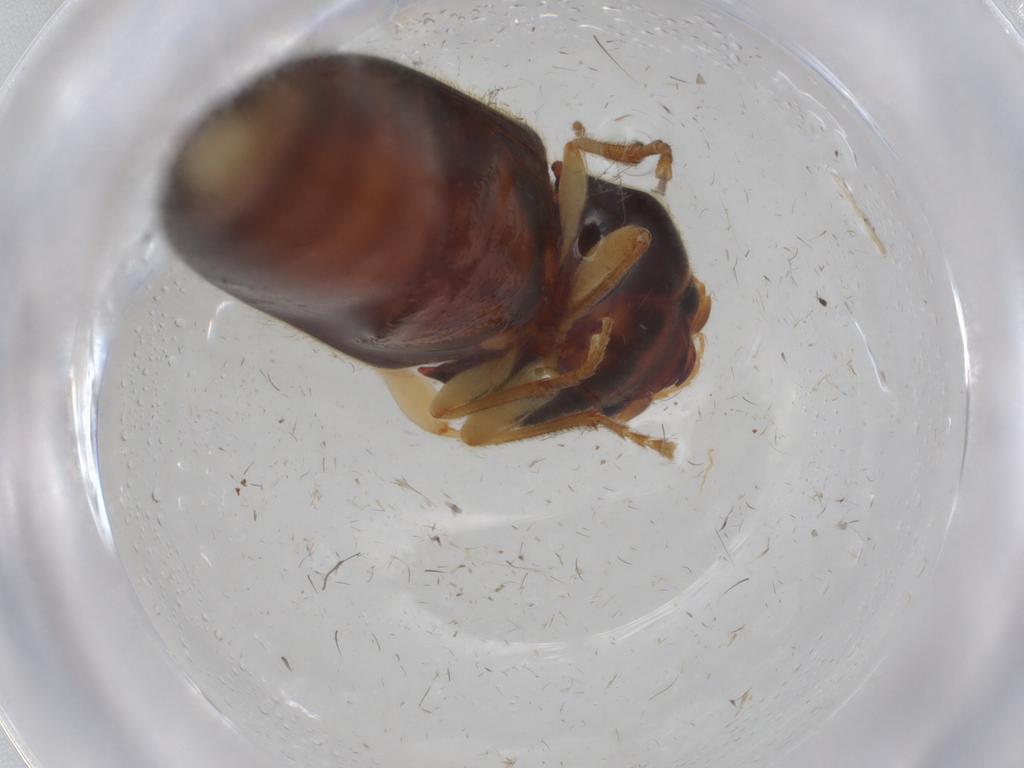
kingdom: Animalia
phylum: Arthropoda
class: Insecta
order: Coleoptera
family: Elateridae
